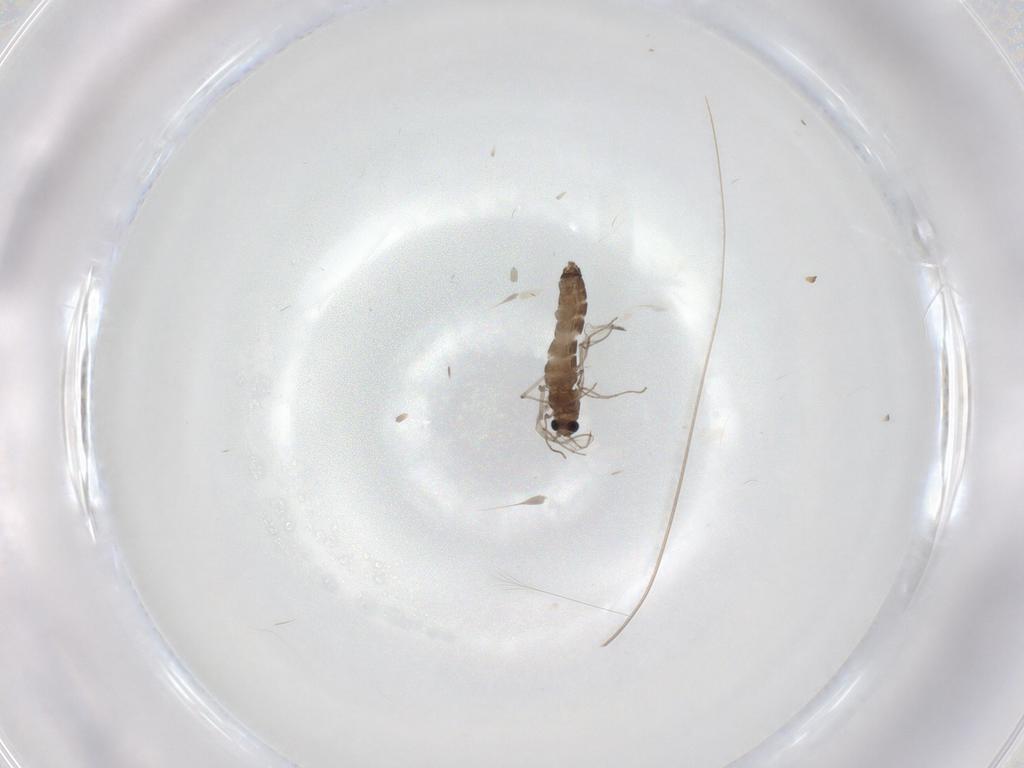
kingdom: Animalia
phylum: Arthropoda
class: Insecta
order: Diptera
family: Chironomidae
